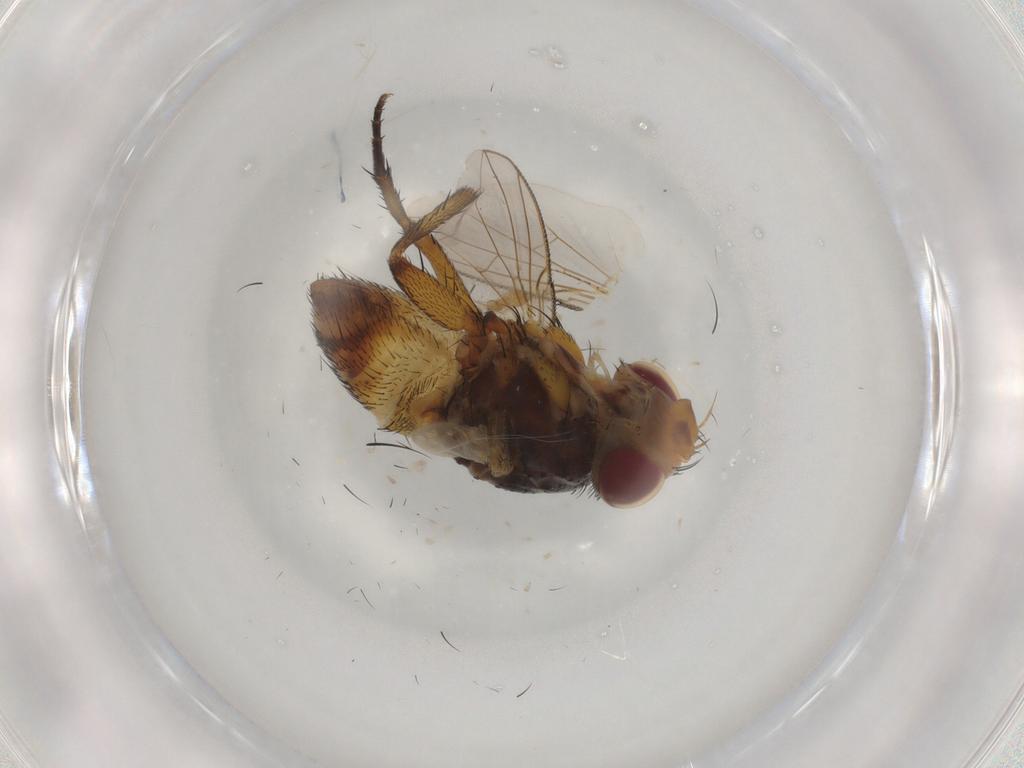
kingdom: Animalia
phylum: Arthropoda
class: Insecta
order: Diptera
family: Tachinidae
